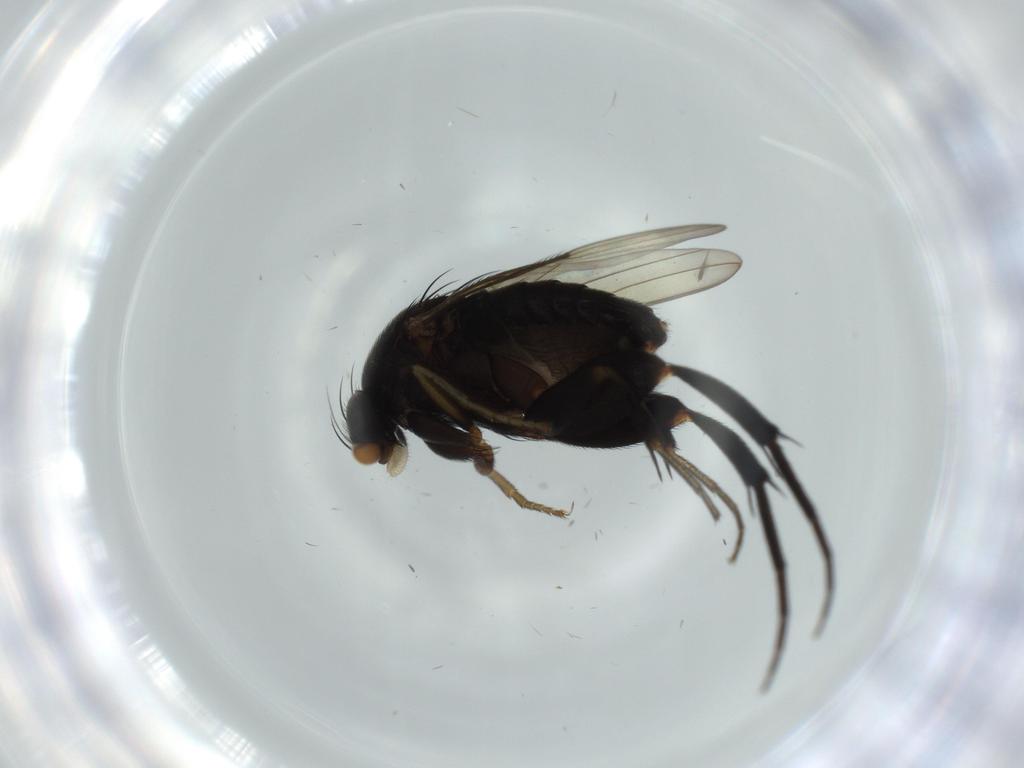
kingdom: Animalia
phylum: Arthropoda
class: Insecta
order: Diptera
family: Phoridae
